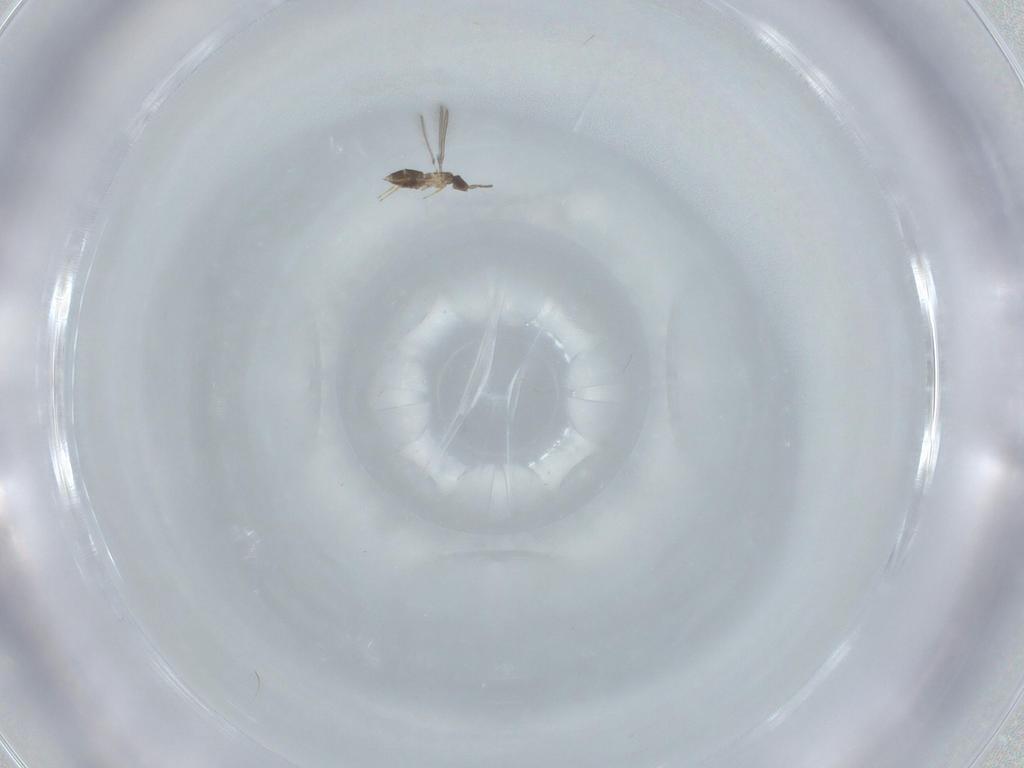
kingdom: Animalia
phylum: Arthropoda
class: Insecta
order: Hymenoptera
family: Mymaridae
